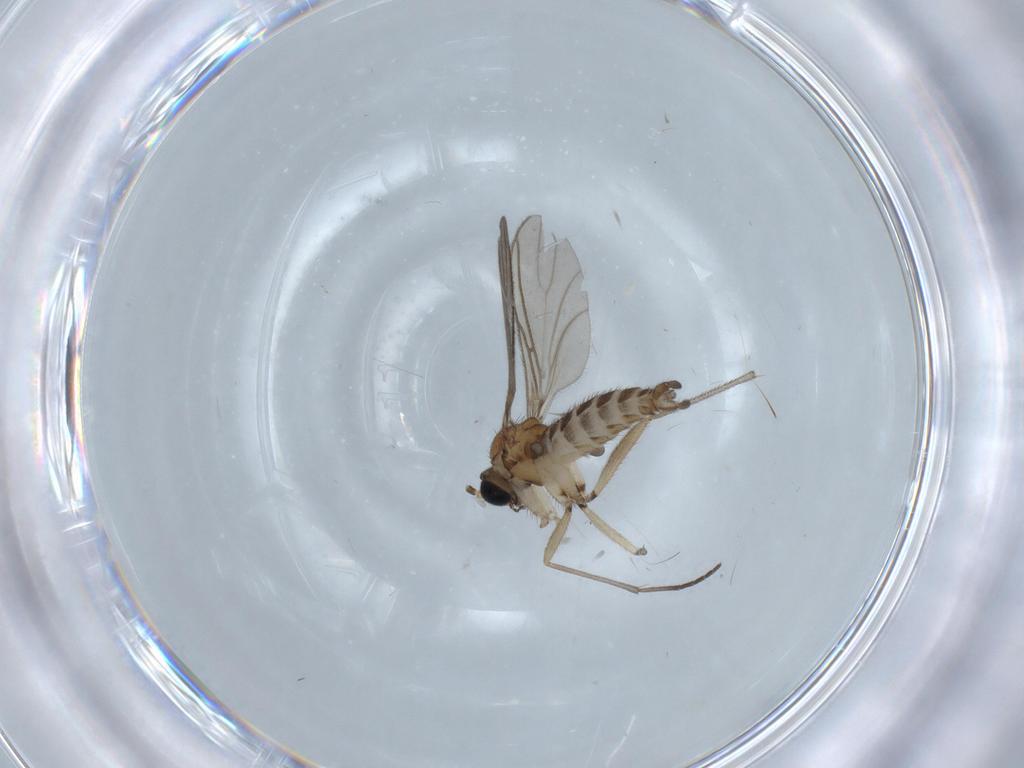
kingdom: Animalia
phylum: Arthropoda
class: Insecta
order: Diptera
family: Sciaridae
